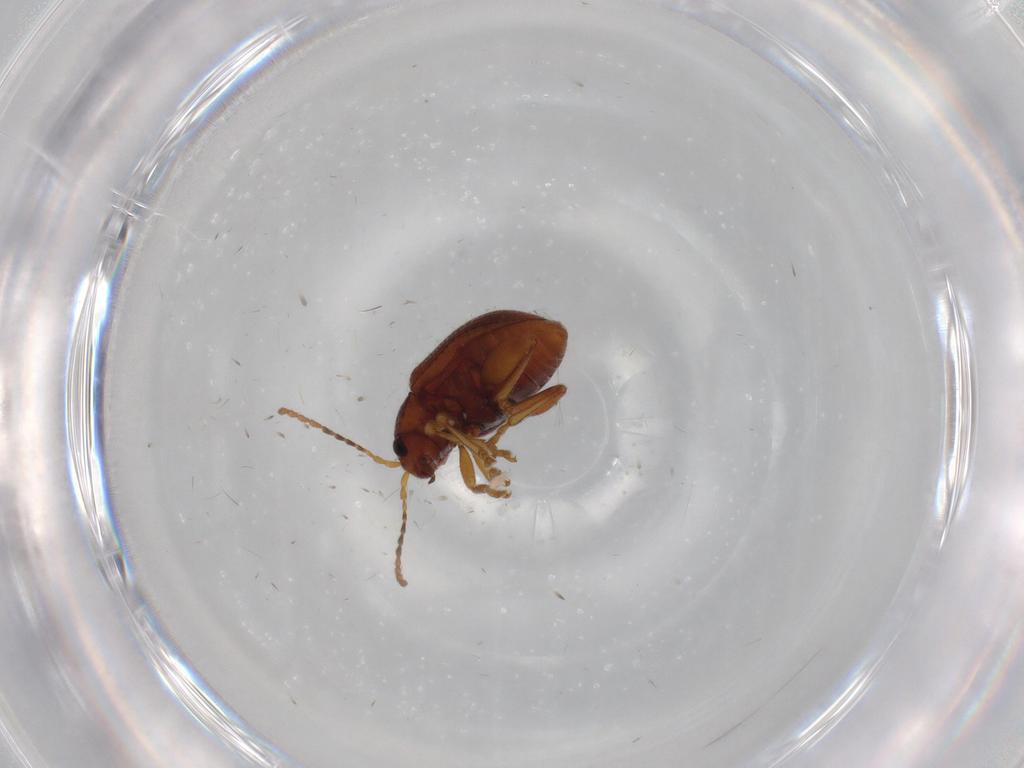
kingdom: Animalia
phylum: Arthropoda
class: Insecta
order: Coleoptera
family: Chrysomelidae
